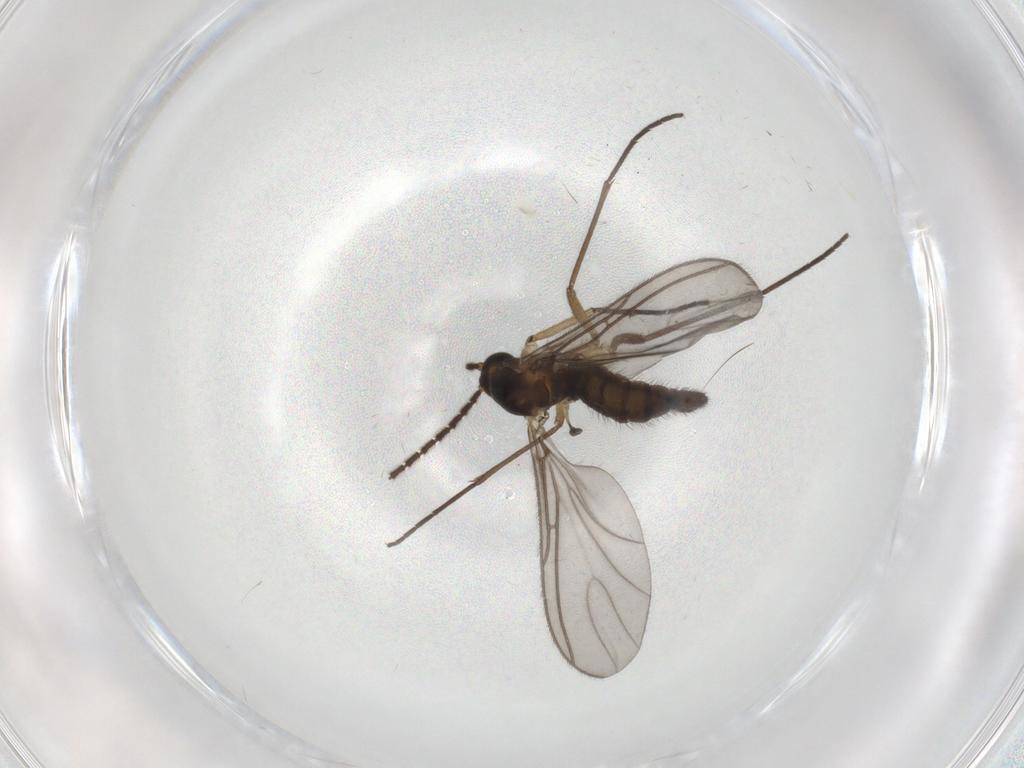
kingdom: Animalia
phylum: Arthropoda
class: Insecta
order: Diptera
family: Sciaridae
